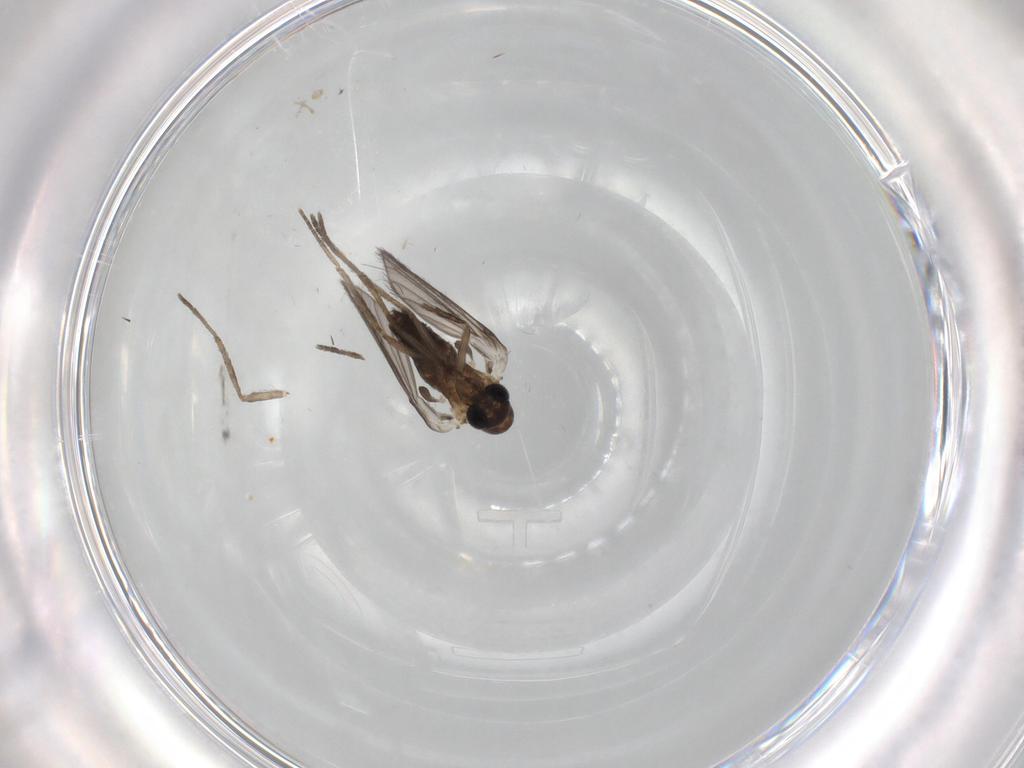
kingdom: Animalia
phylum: Arthropoda
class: Insecta
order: Diptera
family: Psychodidae
